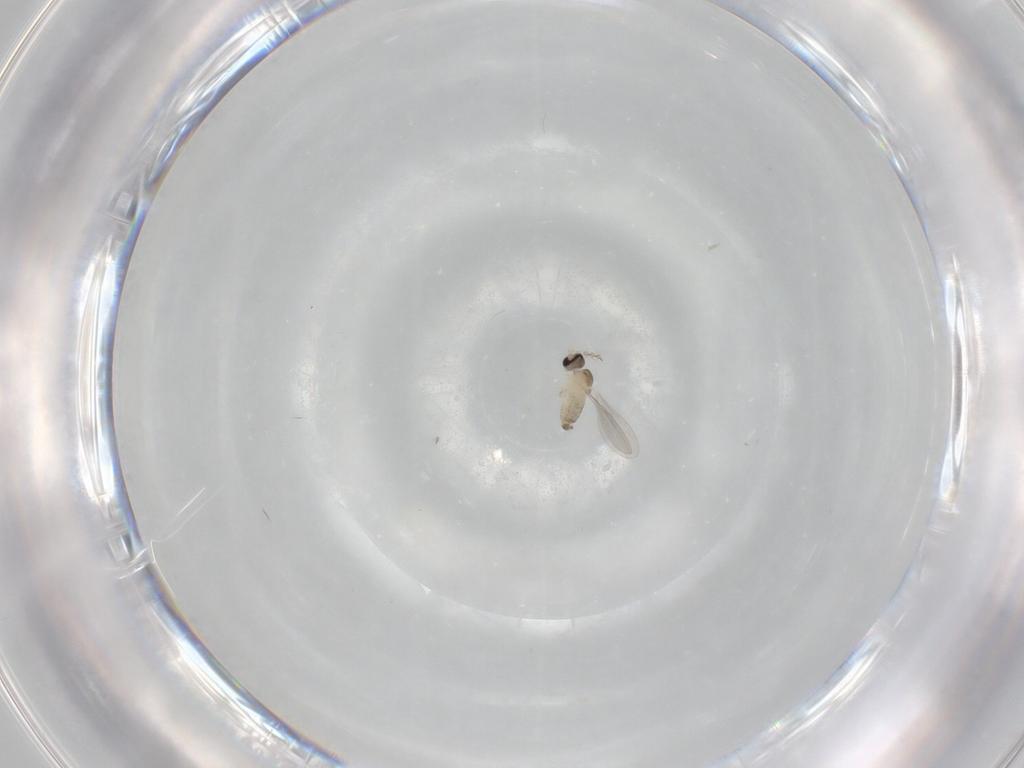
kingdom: Animalia
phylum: Arthropoda
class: Insecta
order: Diptera
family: Cecidomyiidae
